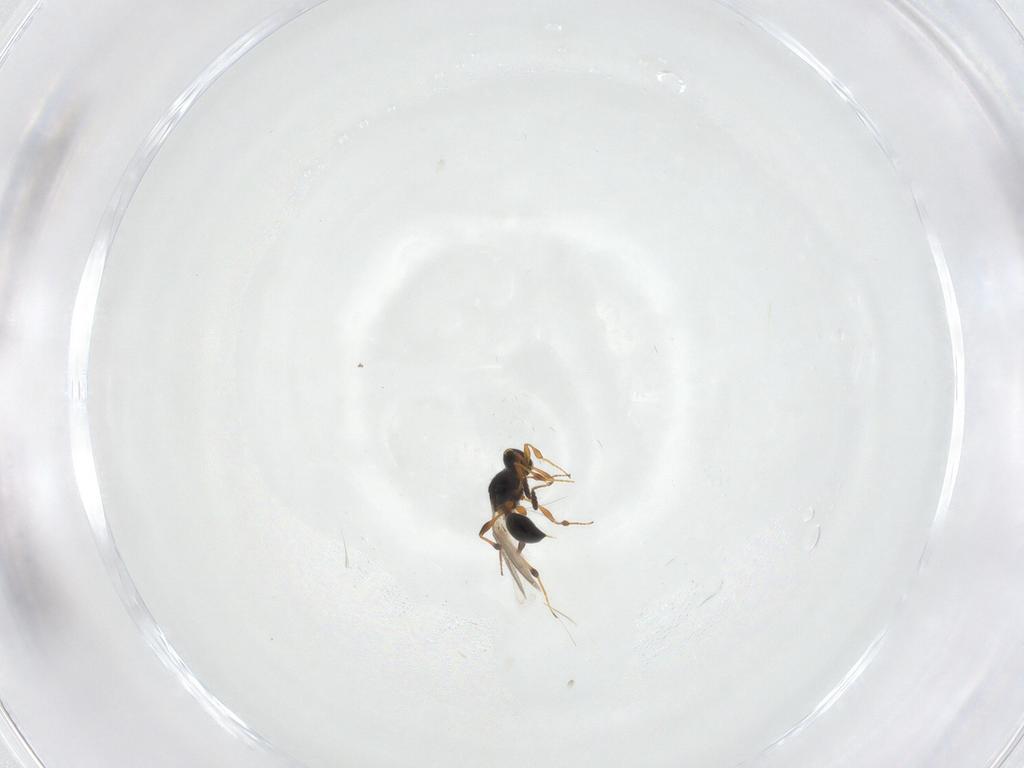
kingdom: Animalia
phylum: Arthropoda
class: Insecta
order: Hymenoptera
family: Platygastridae
